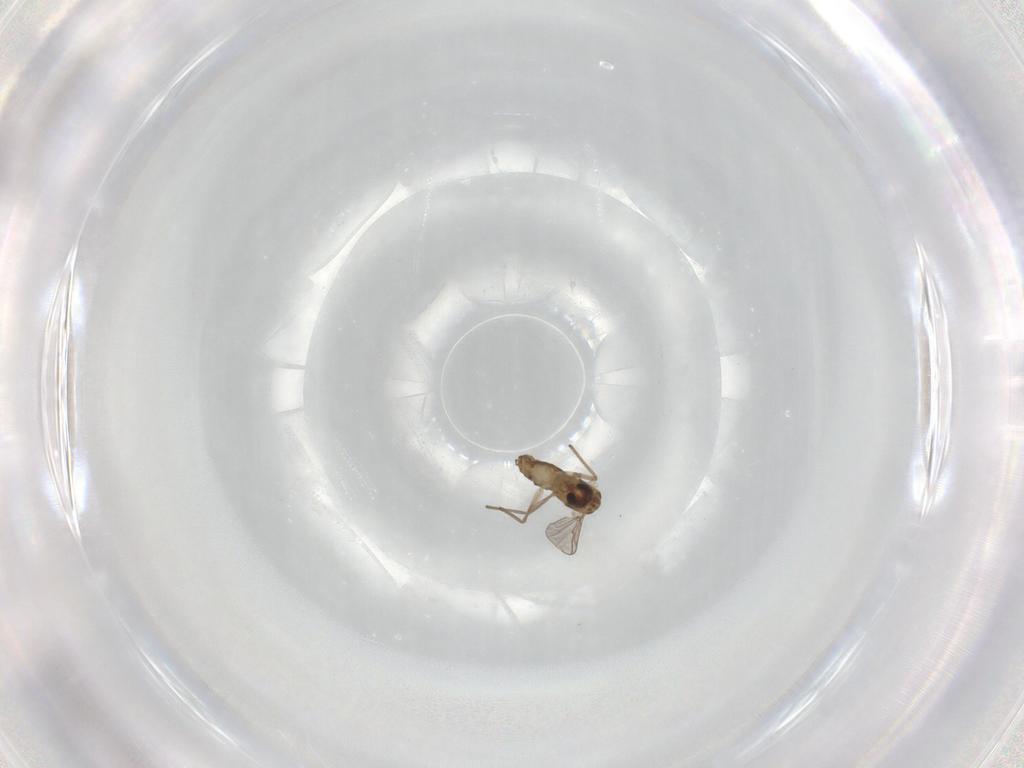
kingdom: Animalia
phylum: Arthropoda
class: Insecta
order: Diptera
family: Chironomidae
